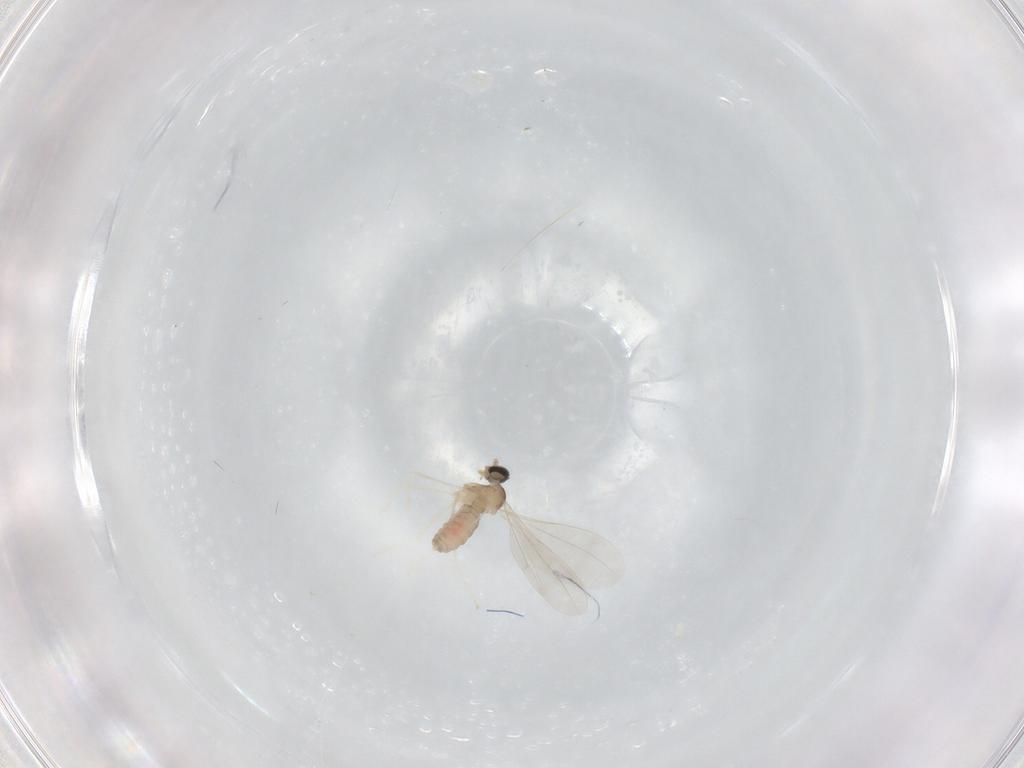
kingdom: Animalia
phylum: Arthropoda
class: Insecta
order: Diptera
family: Cecidomyiidae
